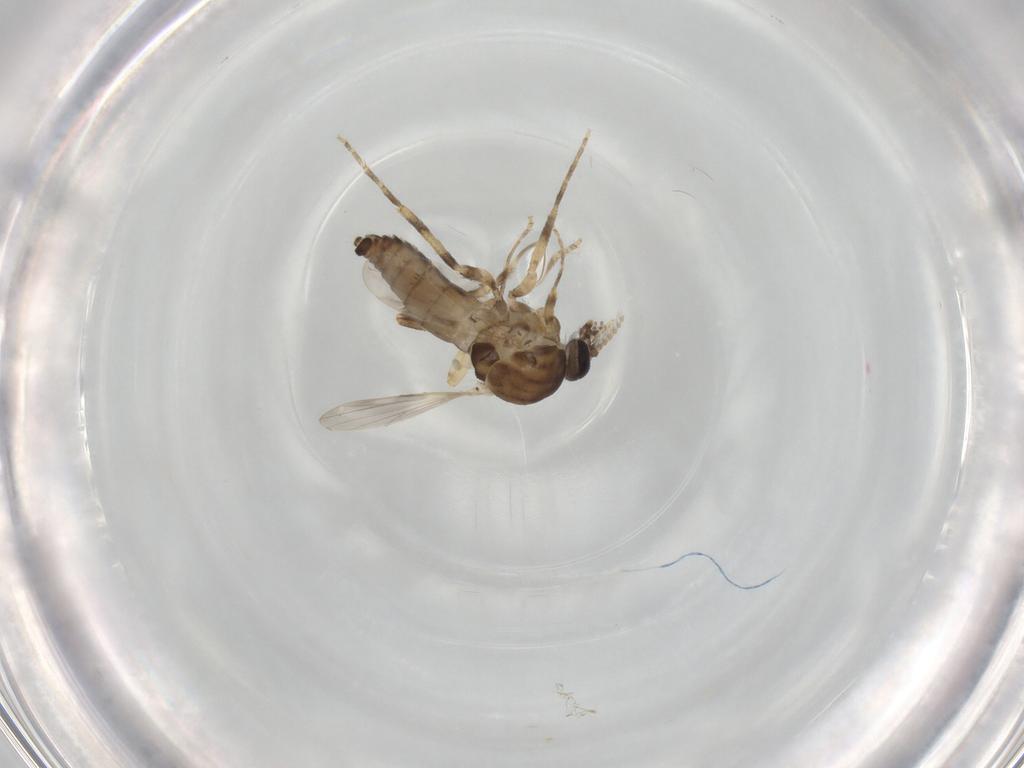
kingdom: Animalia
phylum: Arthropoda
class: Insecta
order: Diptera
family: Ceratopogonidae
